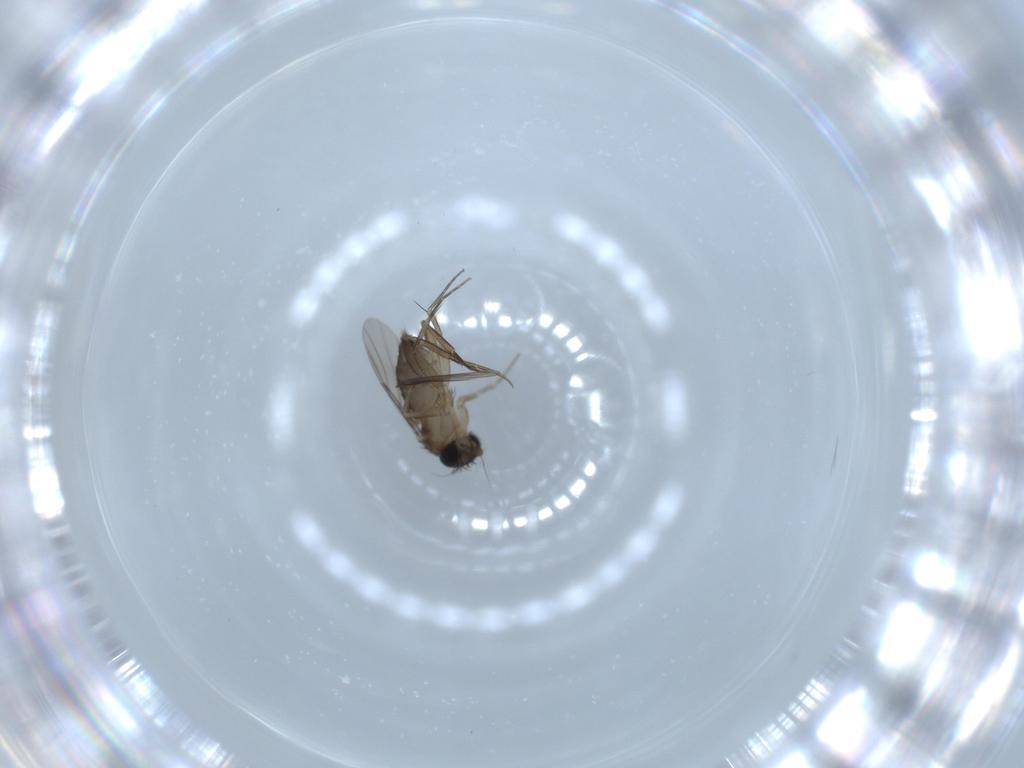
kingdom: Animalia
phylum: Arthropoda
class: Insecta
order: Diptera
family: Phoridae
